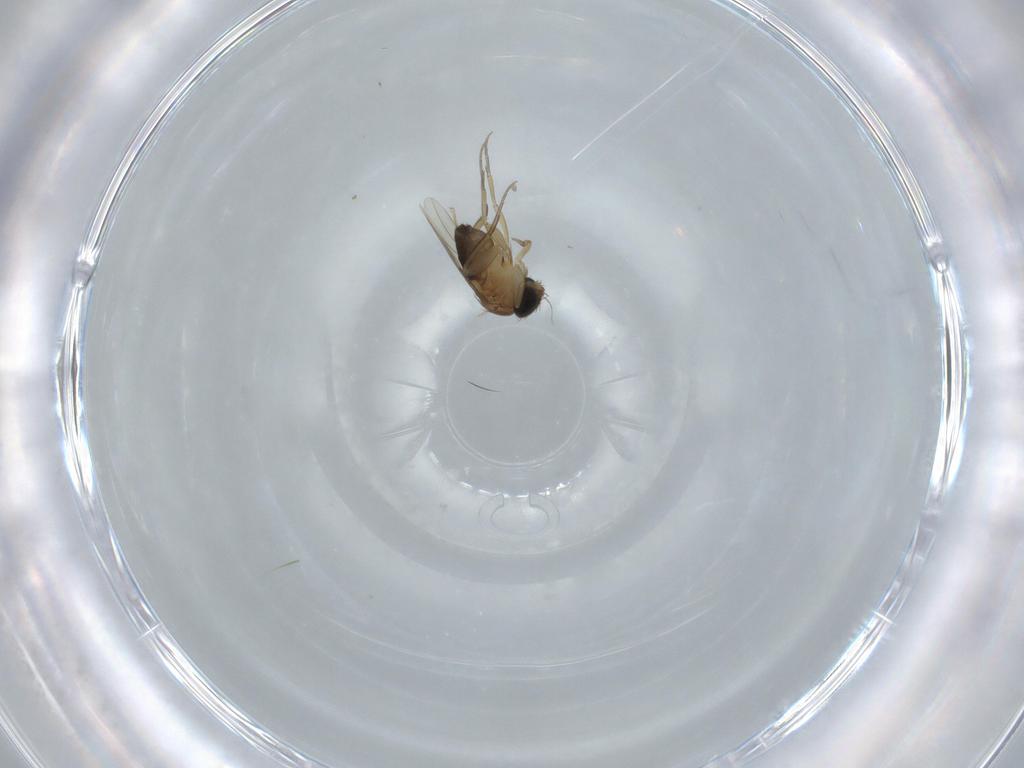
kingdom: Animalia
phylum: Arthropoda
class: Insecta
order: Diptera
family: Phoridae
